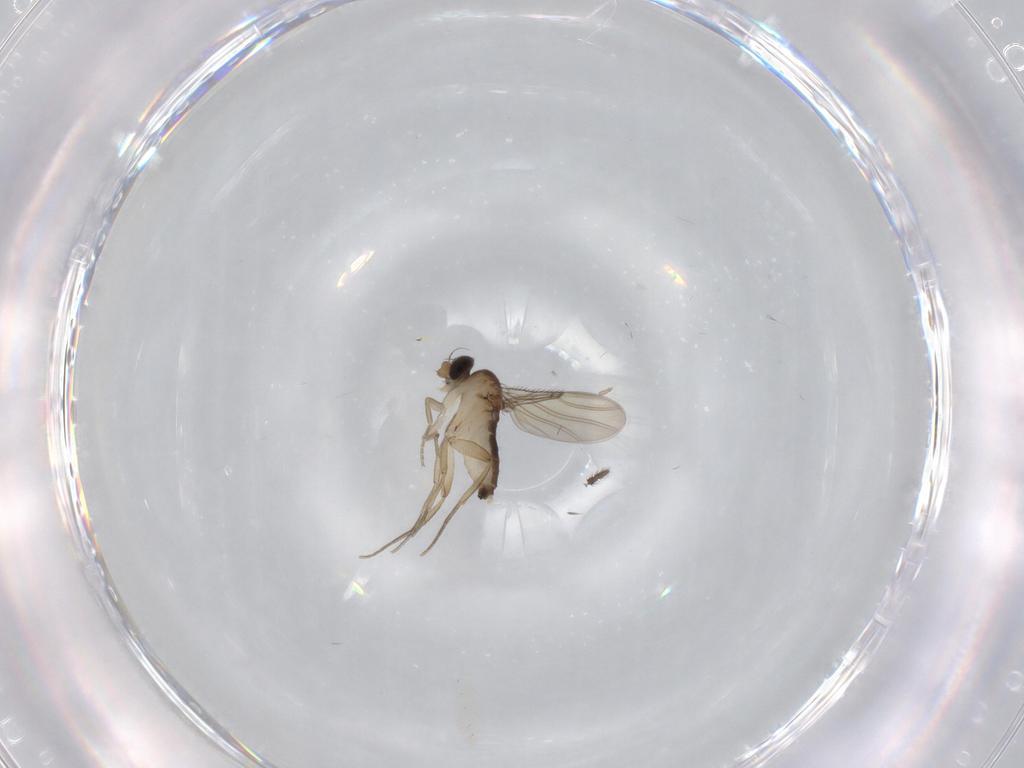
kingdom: Animalia
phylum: Arthropoda
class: Insecta
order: Diptera
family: Phoridae
